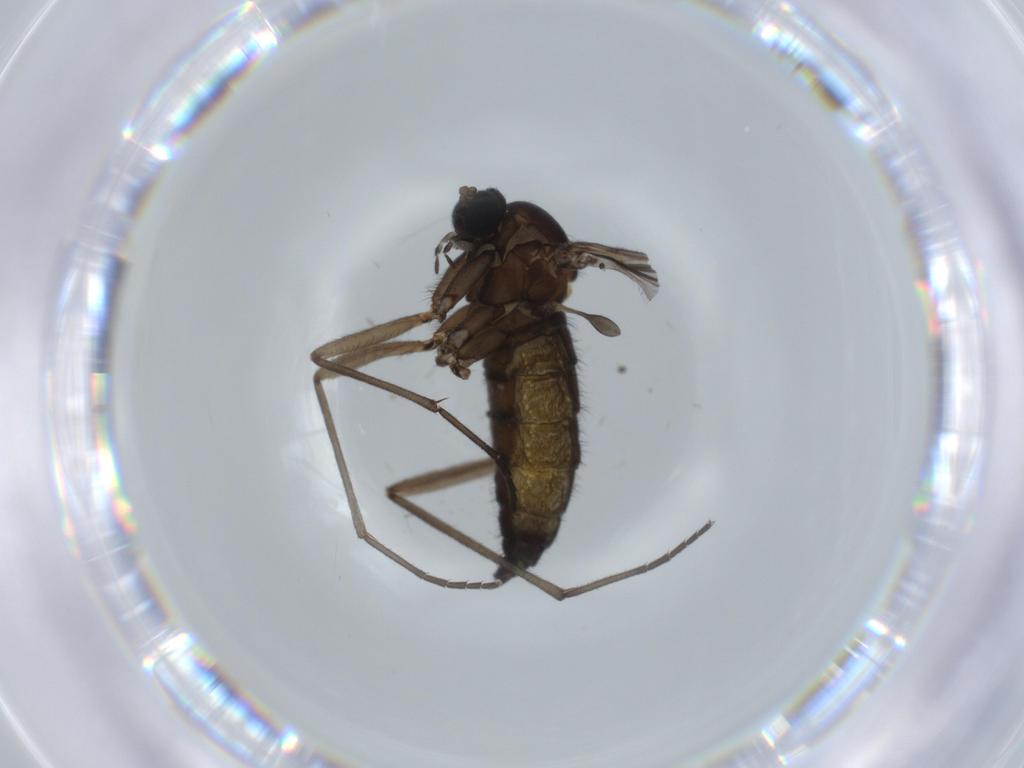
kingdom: Animalia
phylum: Arthropoda
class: Insecta
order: Diptera
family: Sciaridae
